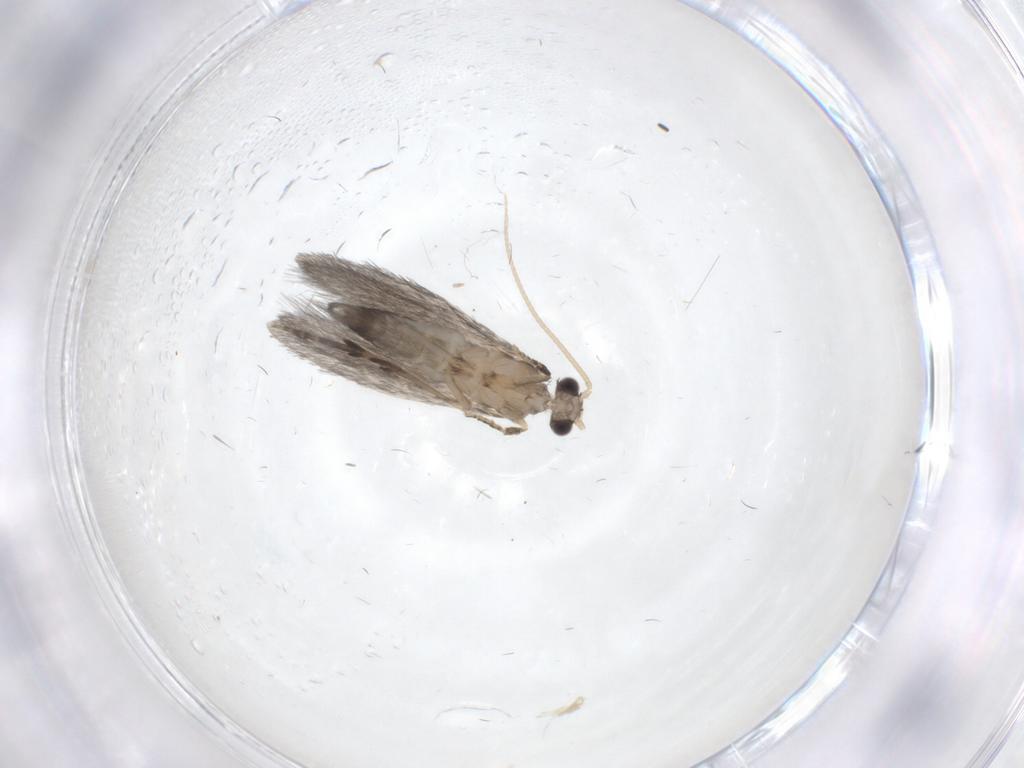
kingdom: Animalia
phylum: Arthropoda
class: Insecta
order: Trichoptera
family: Hydroptilidae
